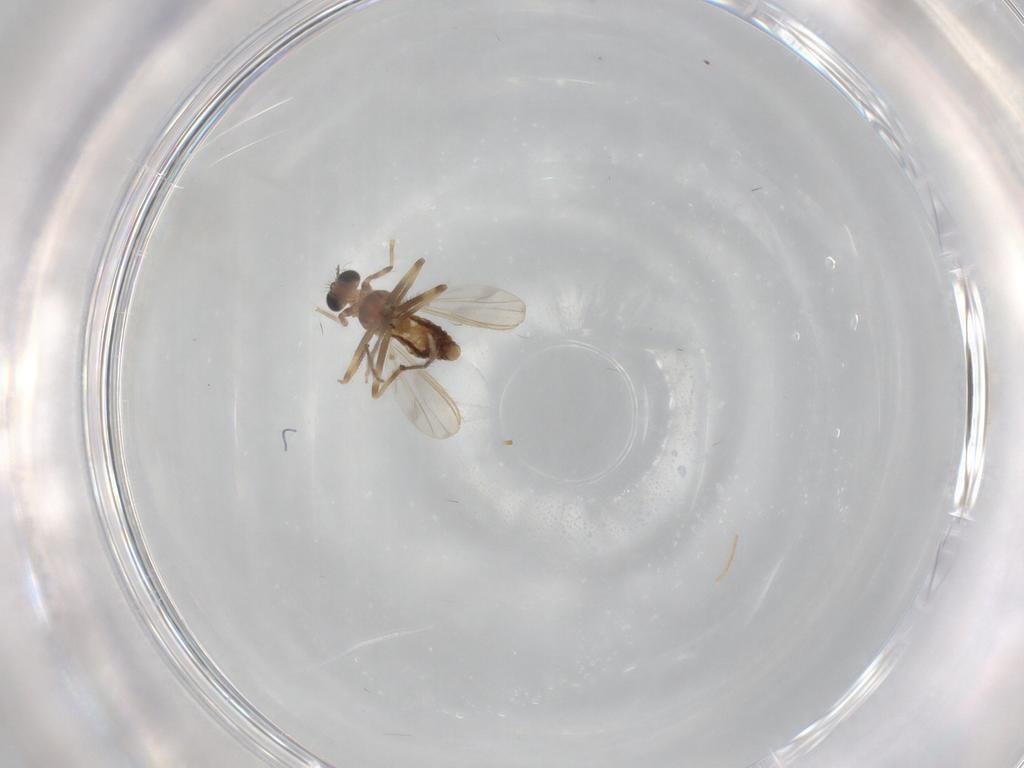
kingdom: Animalia
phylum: Arthropoda
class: Insecta
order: Diptera
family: Chironomidae
